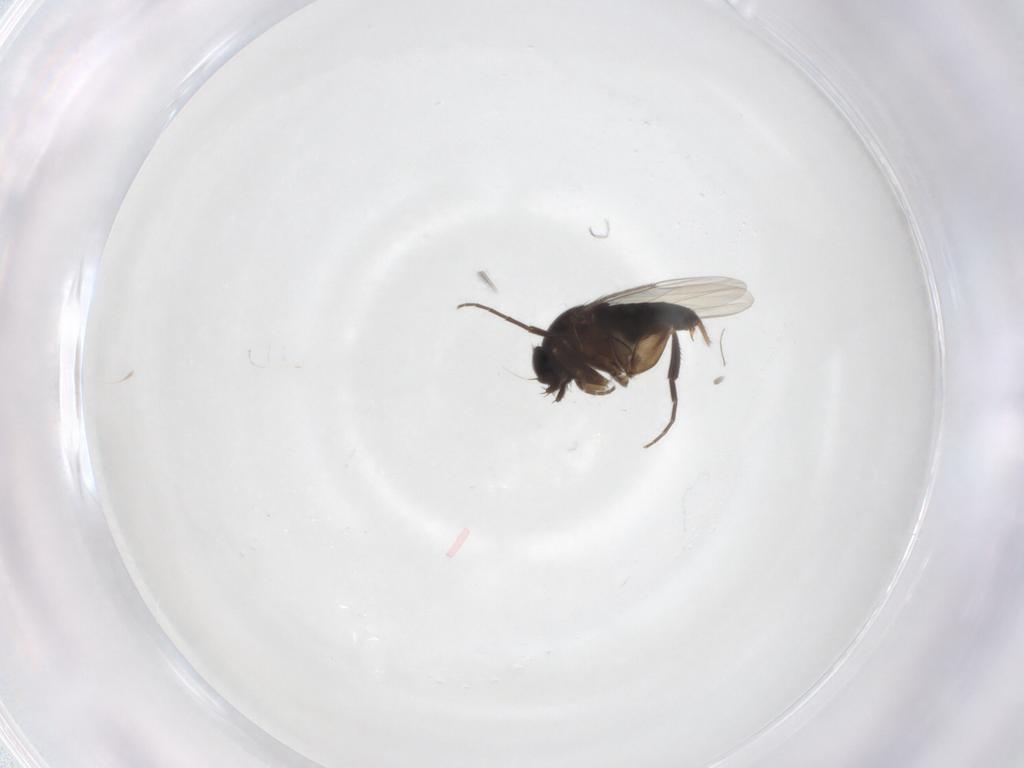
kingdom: Animalia
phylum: Arthropoda
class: Insecta
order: Diptera
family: Phoridae
